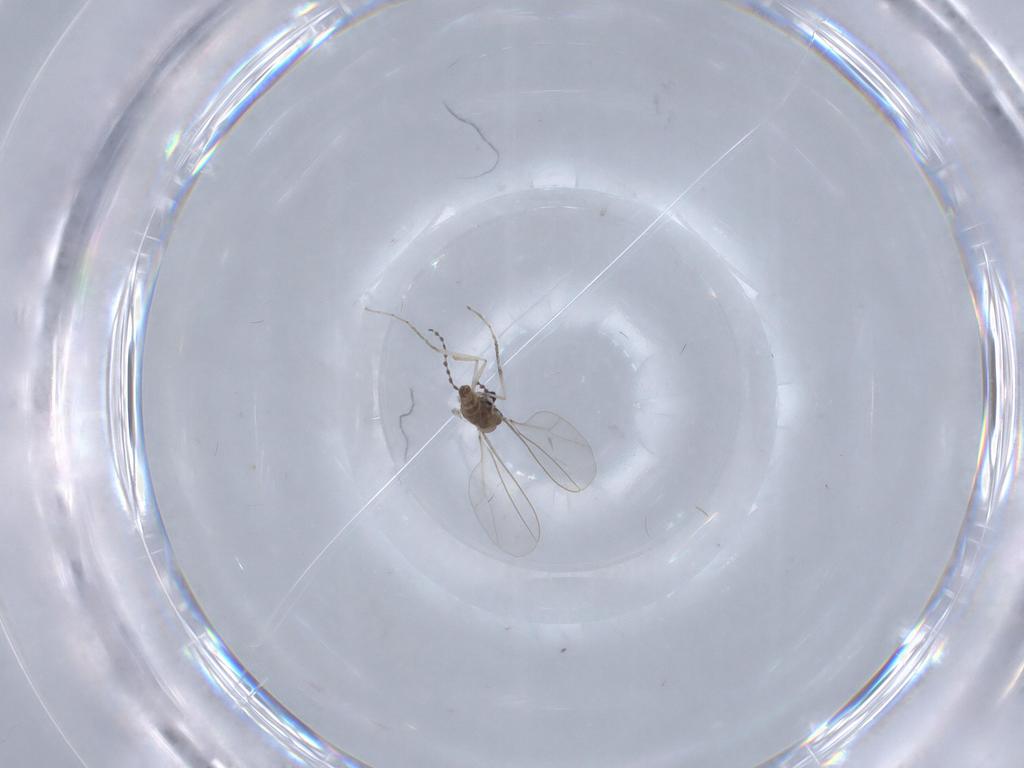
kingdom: Animalia
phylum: Arthropoda
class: Insecta
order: Diptera
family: Cecidomyiidae
